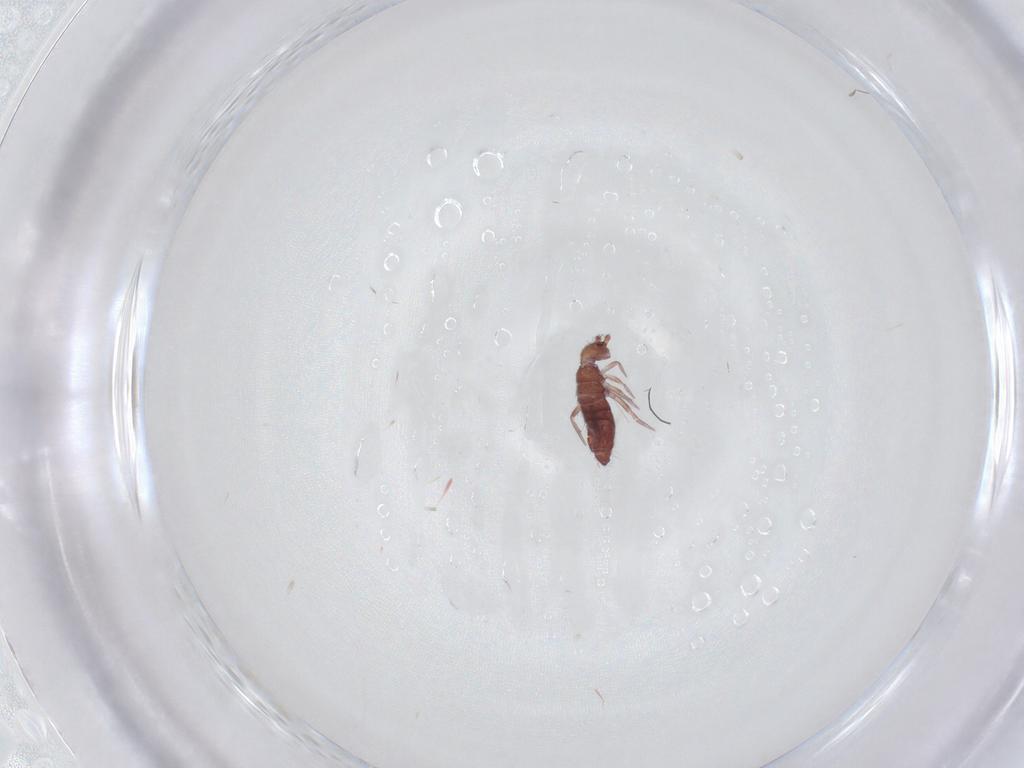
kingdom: Animalia
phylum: Arthropoda
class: Collembola
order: Entomobryomorpha
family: Entomobryidae
